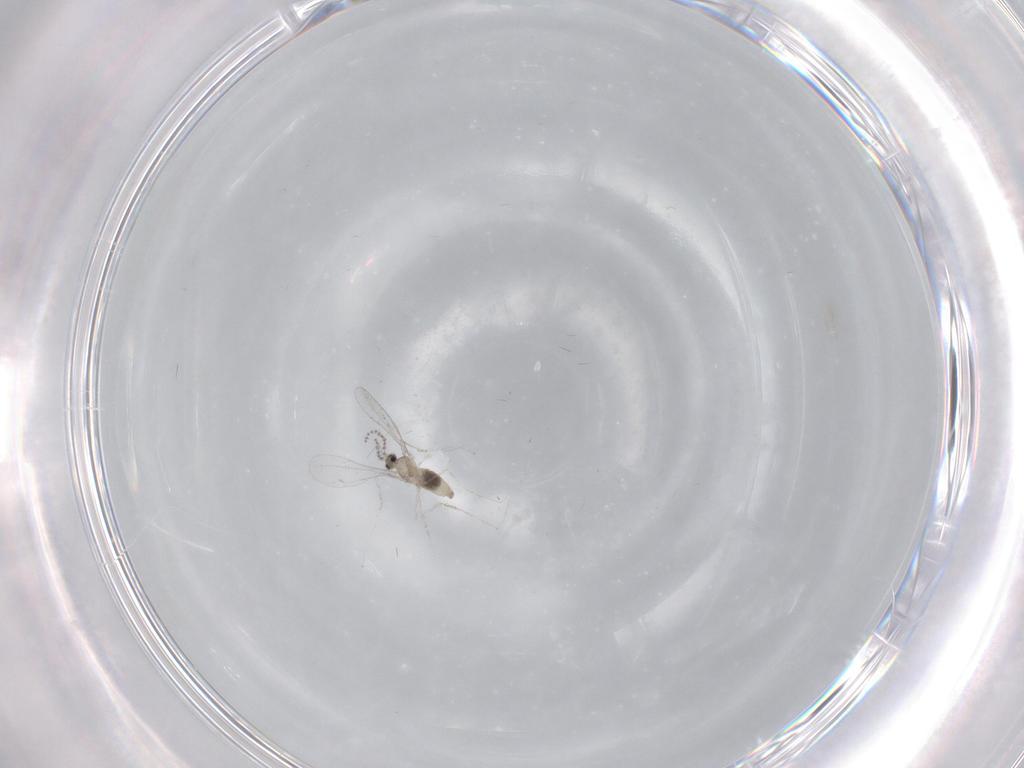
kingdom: Animalia
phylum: Arthropoda
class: Insecta
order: Diptera
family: Cecidomyiidae
